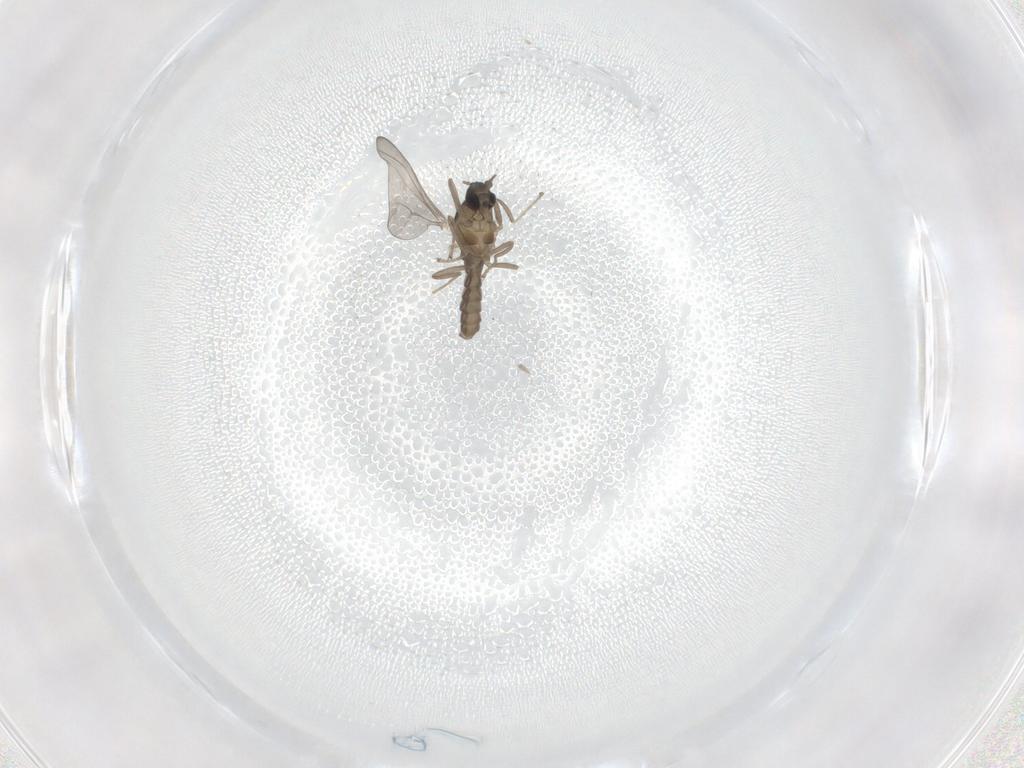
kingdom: Animalia
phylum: Arthropoda
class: Insecta
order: Diptera
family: Cecidomyiidae
